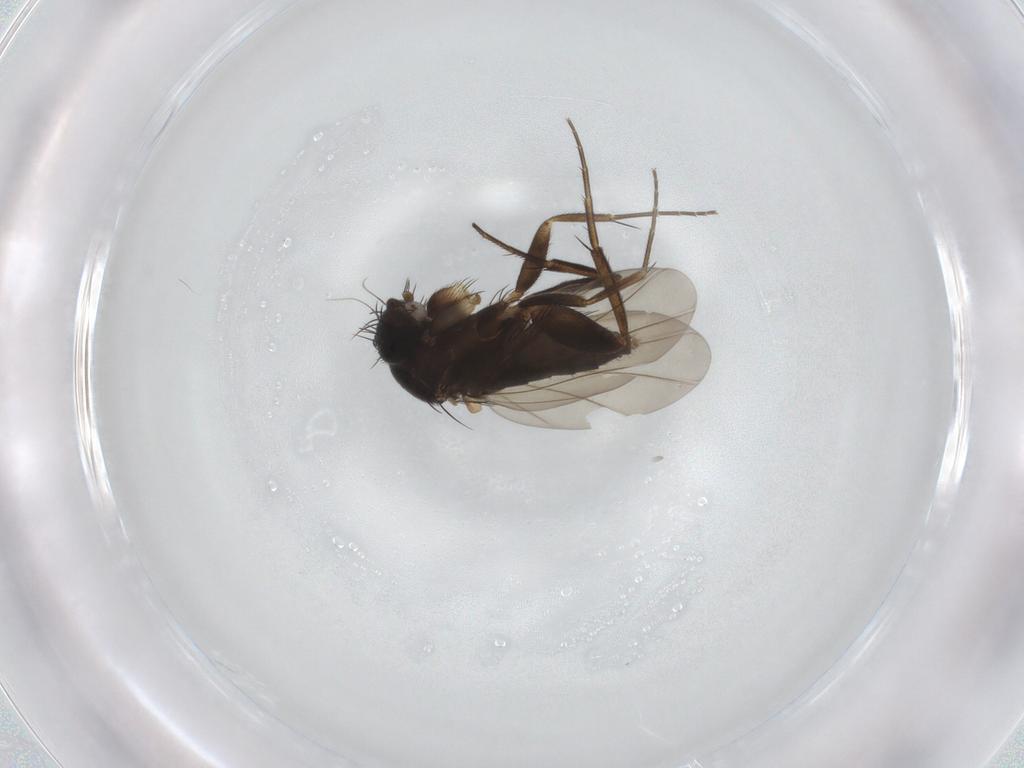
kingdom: Animalia
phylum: Arthropoda
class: Insecta
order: Diptera
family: Phoridae
